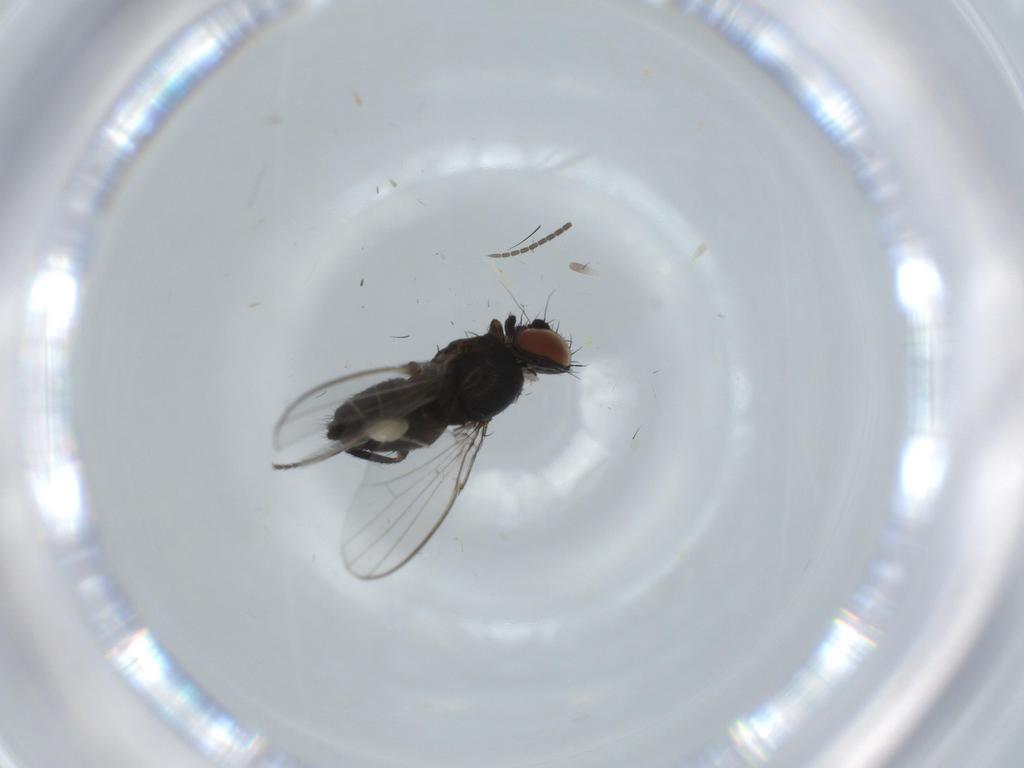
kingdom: Animalia
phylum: Arthropoda
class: Insecta
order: Diptera
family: Milichiidae
